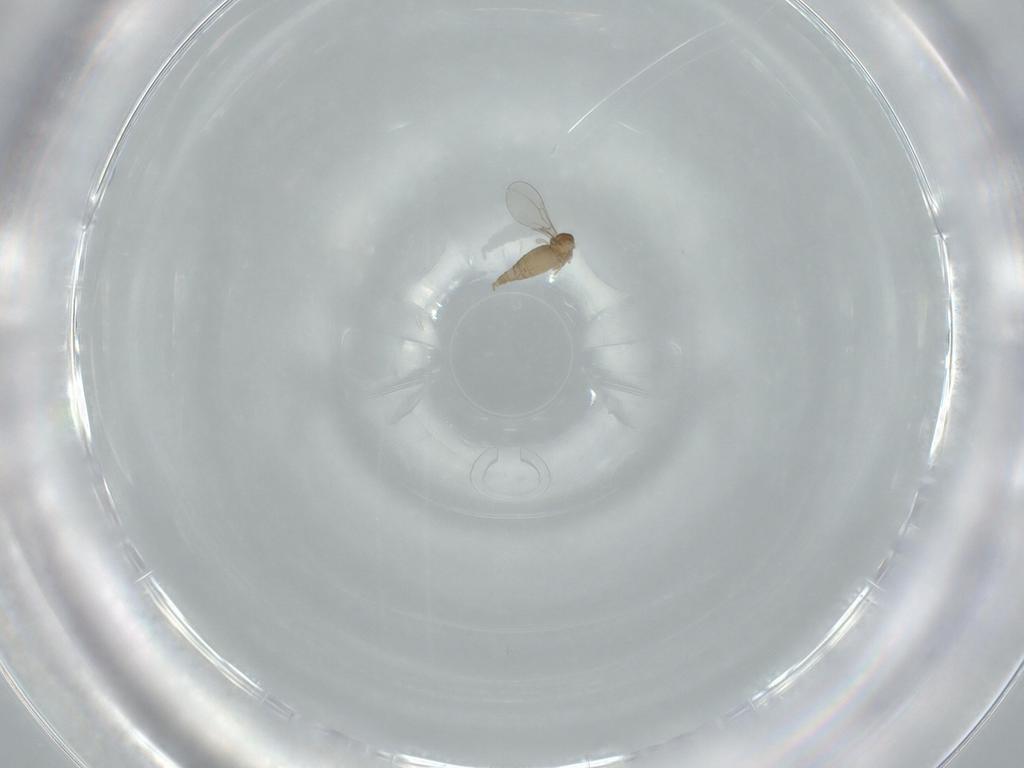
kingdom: Animalia
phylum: Arthropoda
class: Insecta
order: Diptera
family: Cecidomyiidae
